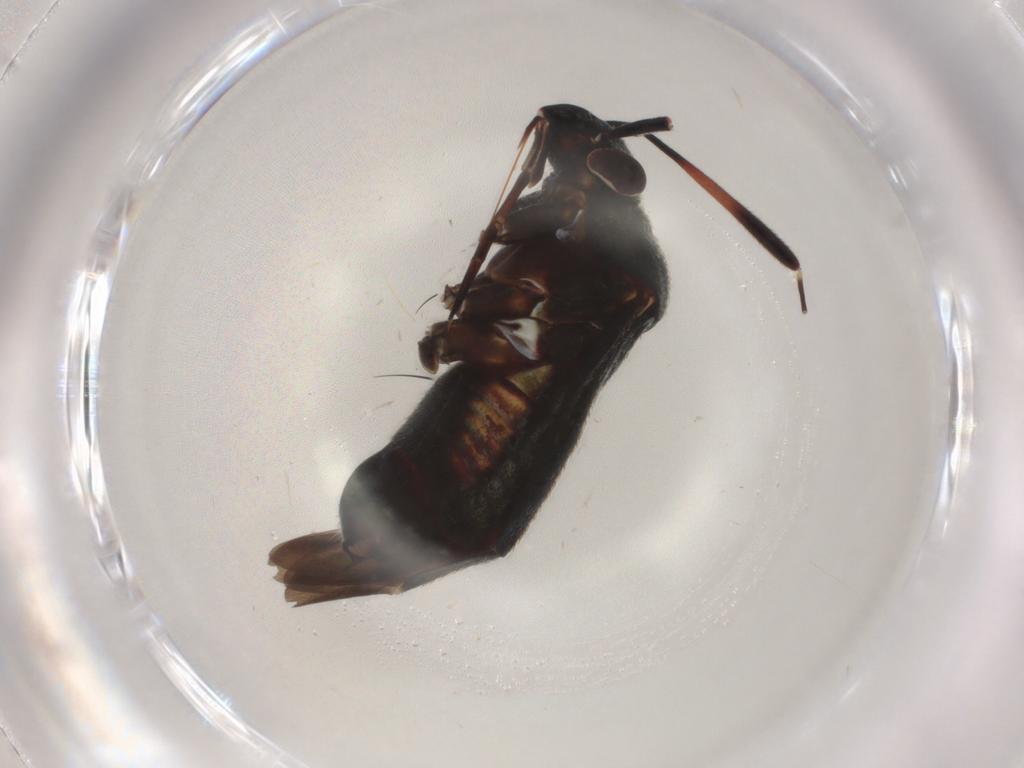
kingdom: Animalia
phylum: Arthropoda
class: Insecta
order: Hemiptera
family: Miridae
